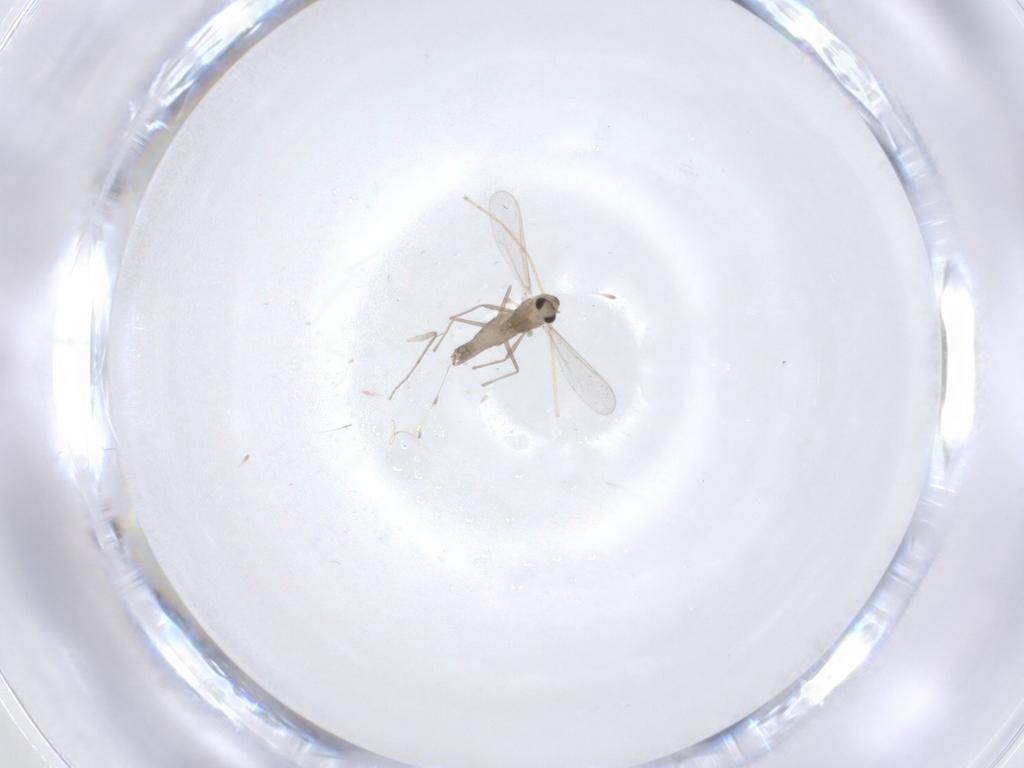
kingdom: Animalia
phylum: Arthropoda
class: Insecta
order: Diptera
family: Chironomidae
